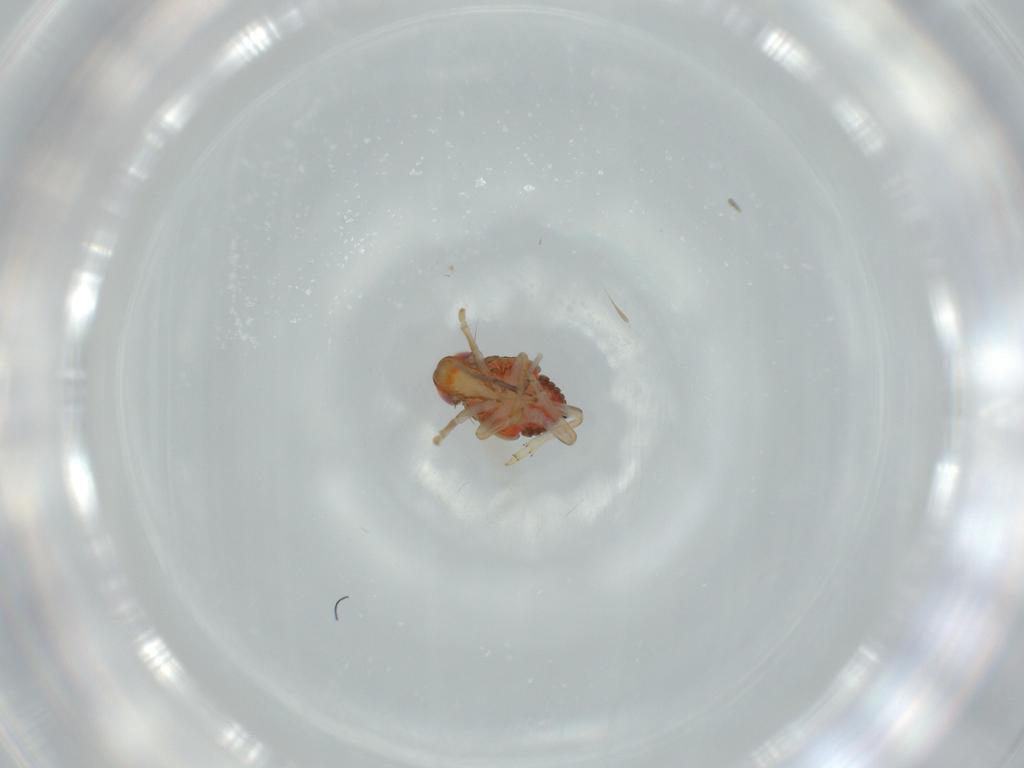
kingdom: Animalia
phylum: Arthropoda
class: Insecta
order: Hemiptera
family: Issidae
